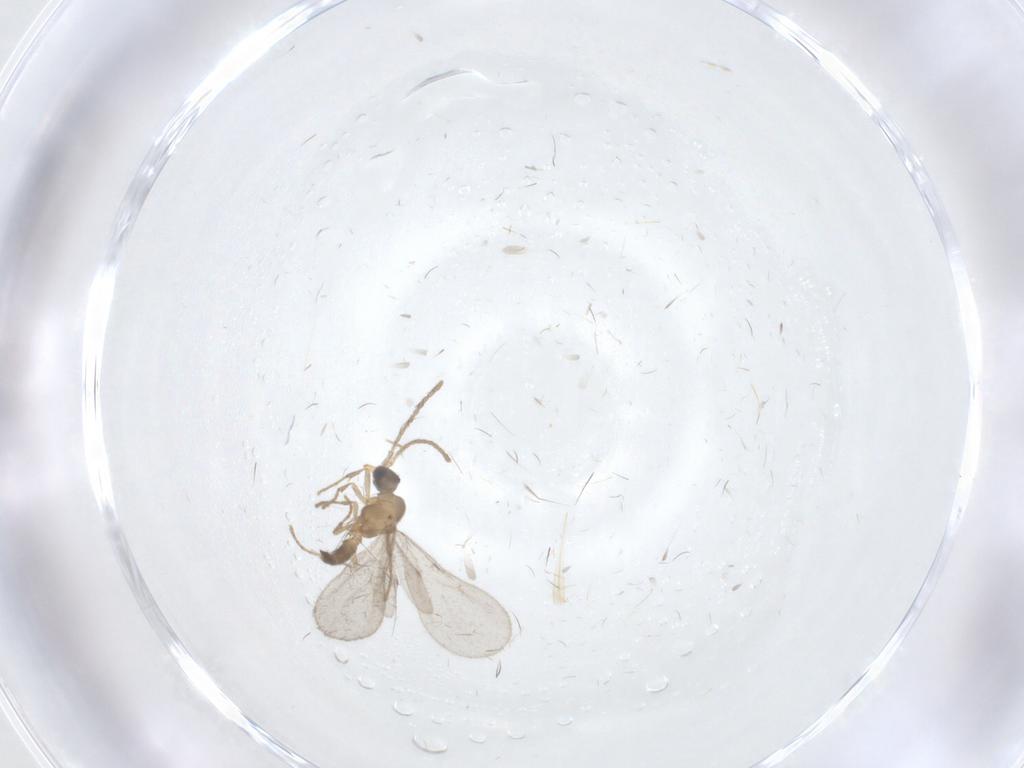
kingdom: Animalia
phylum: Arthropoda
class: Insecta
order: Hymenoptera
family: Formicidae
